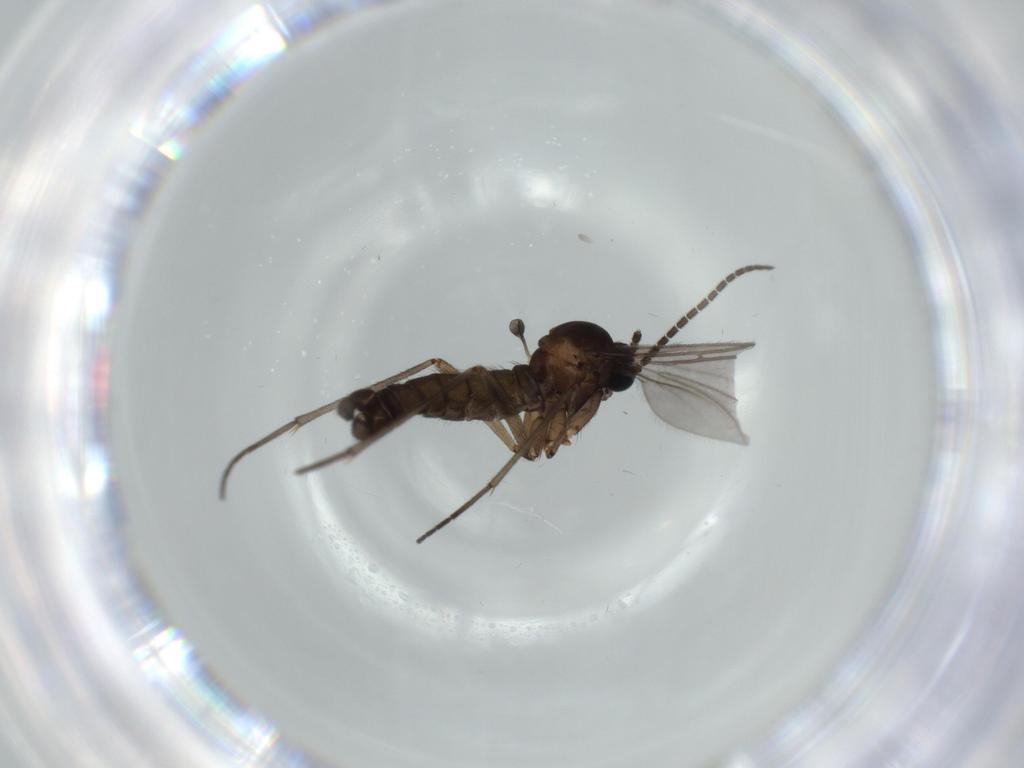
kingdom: Animalia
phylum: Arthropoda
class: Insecta
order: Diptera
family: Sciaridae
